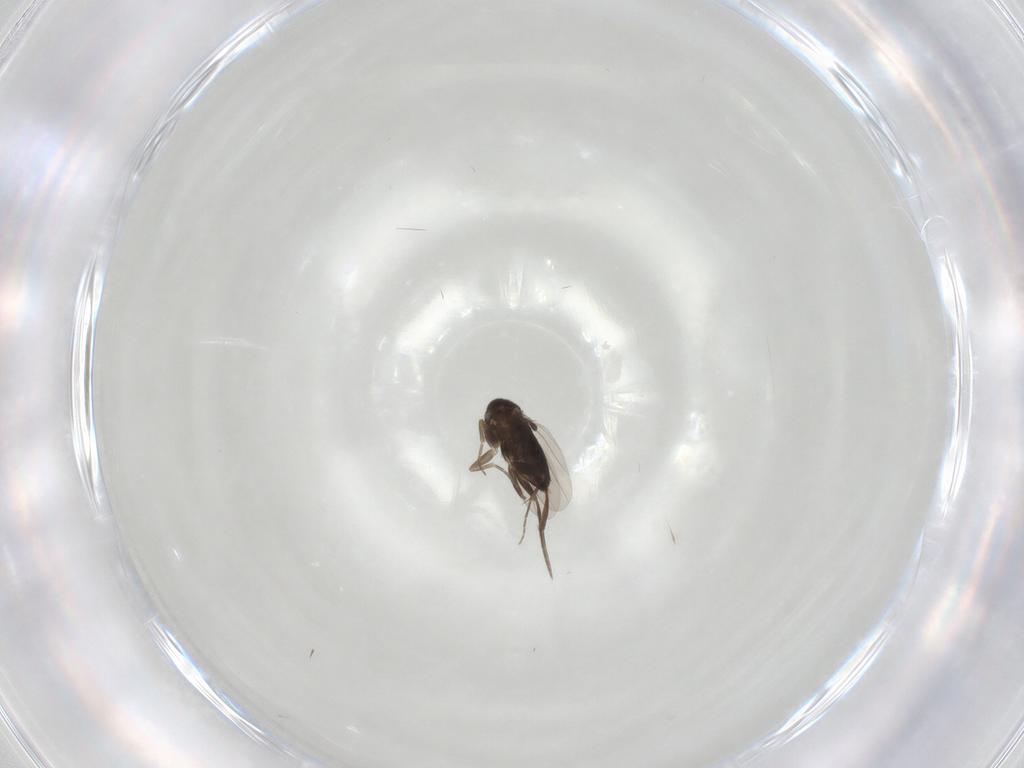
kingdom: Animalia
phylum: Arthropoda
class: Insecta
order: Diptera
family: Phoridae
